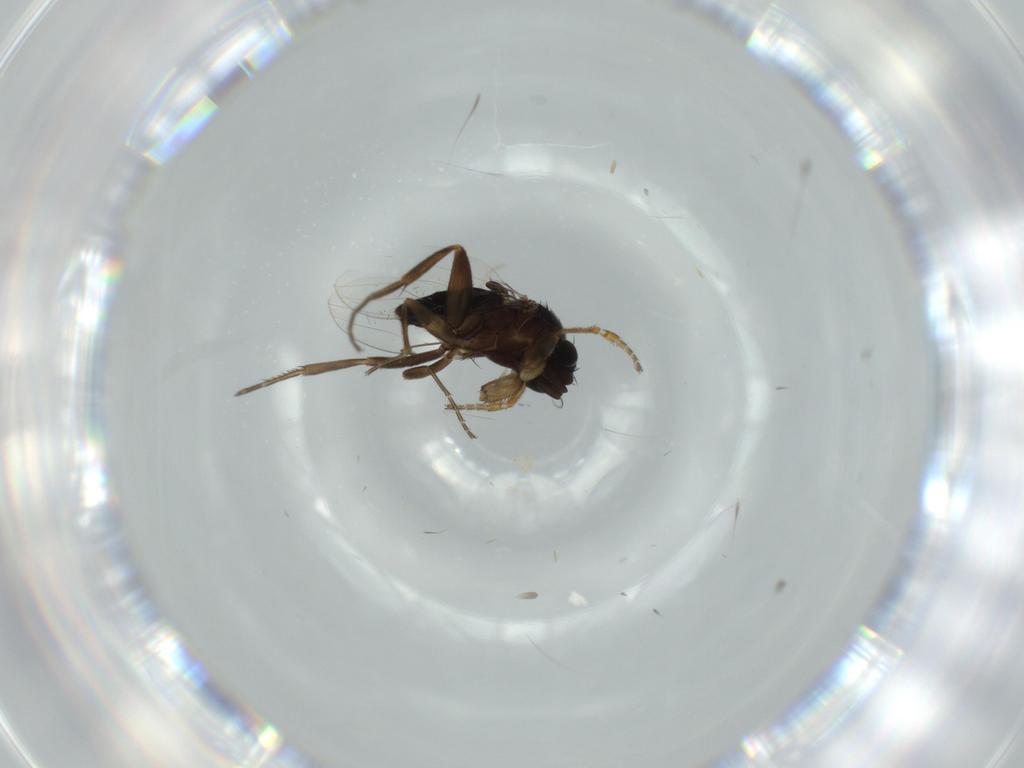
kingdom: Animalia
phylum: Arthropoda
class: Insecta
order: Diptera
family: Phoridae
